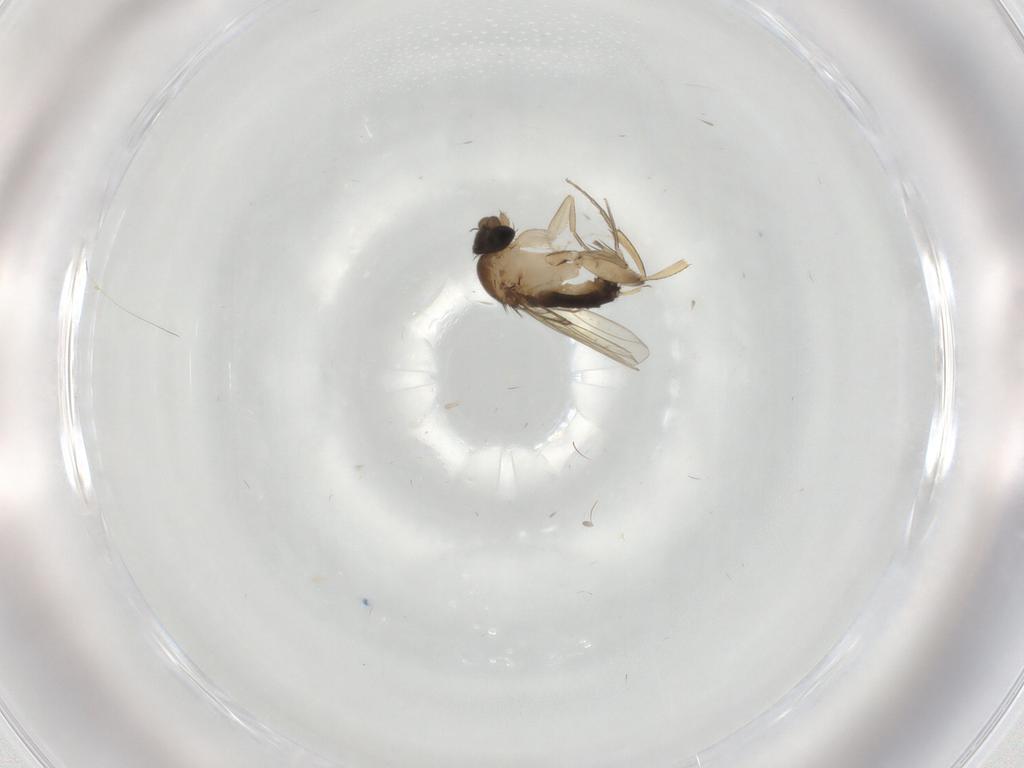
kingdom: Animalia
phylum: Arthropoda
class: Insecta
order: Diptera
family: Phoridae
